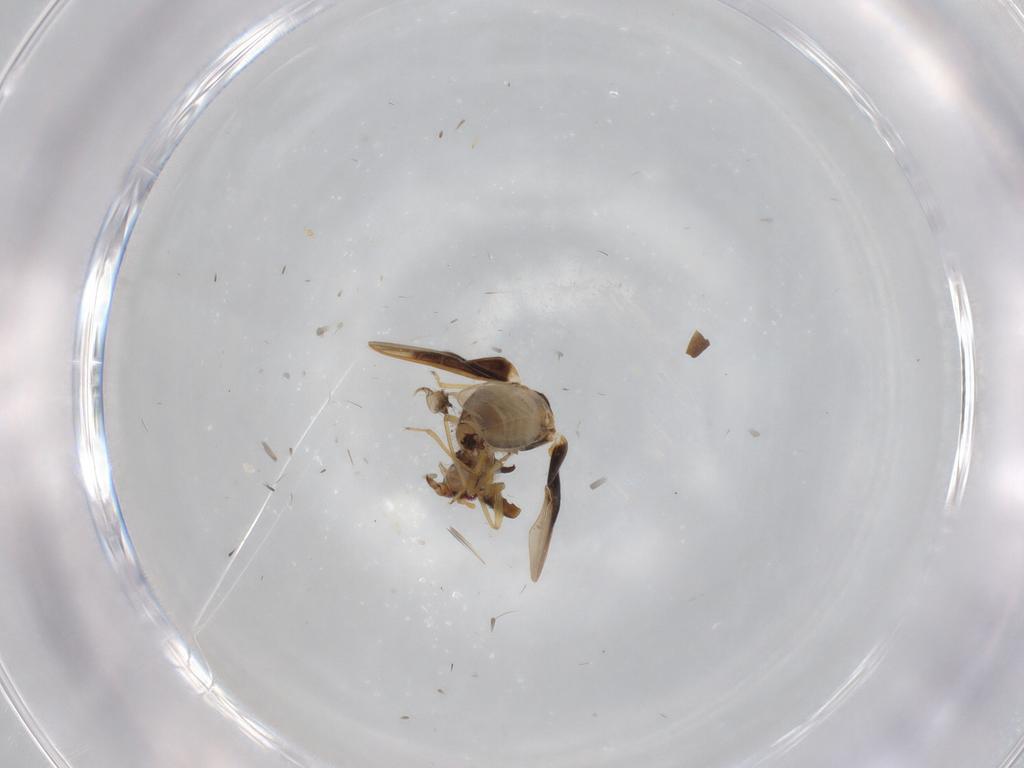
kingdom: Animalia
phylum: Arthropoda
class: Insecta
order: Hemiptera
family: Schizopteridae
